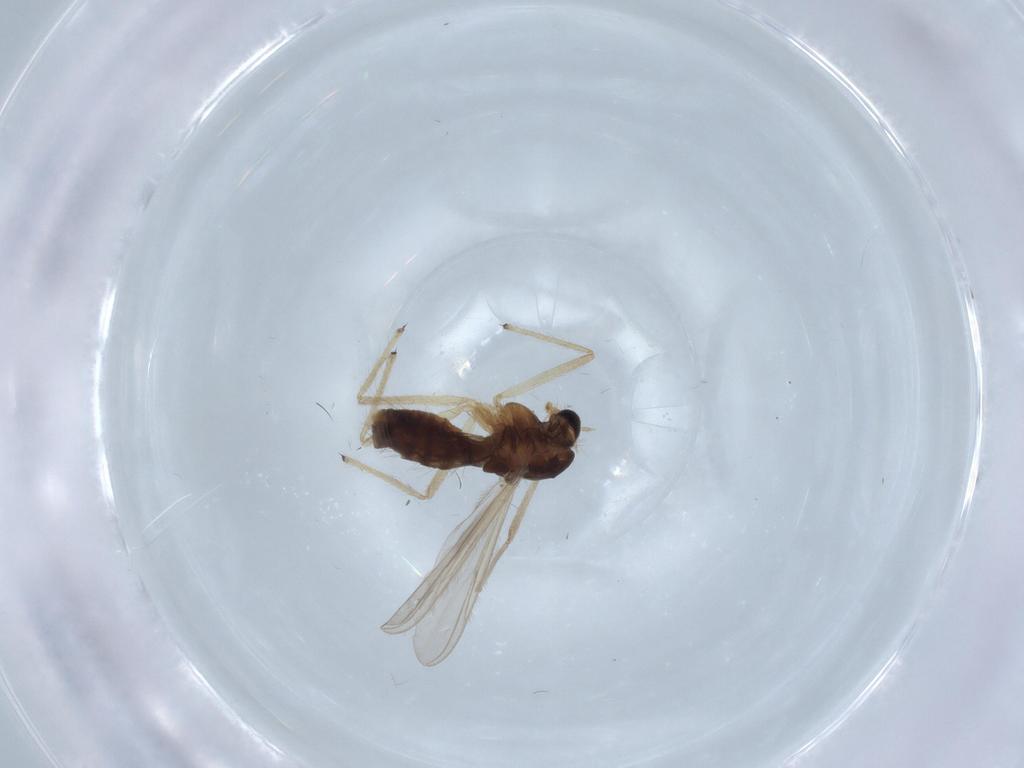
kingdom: Animalia
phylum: Arthropoda
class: Insecta
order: Diptera
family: Chironomidae
